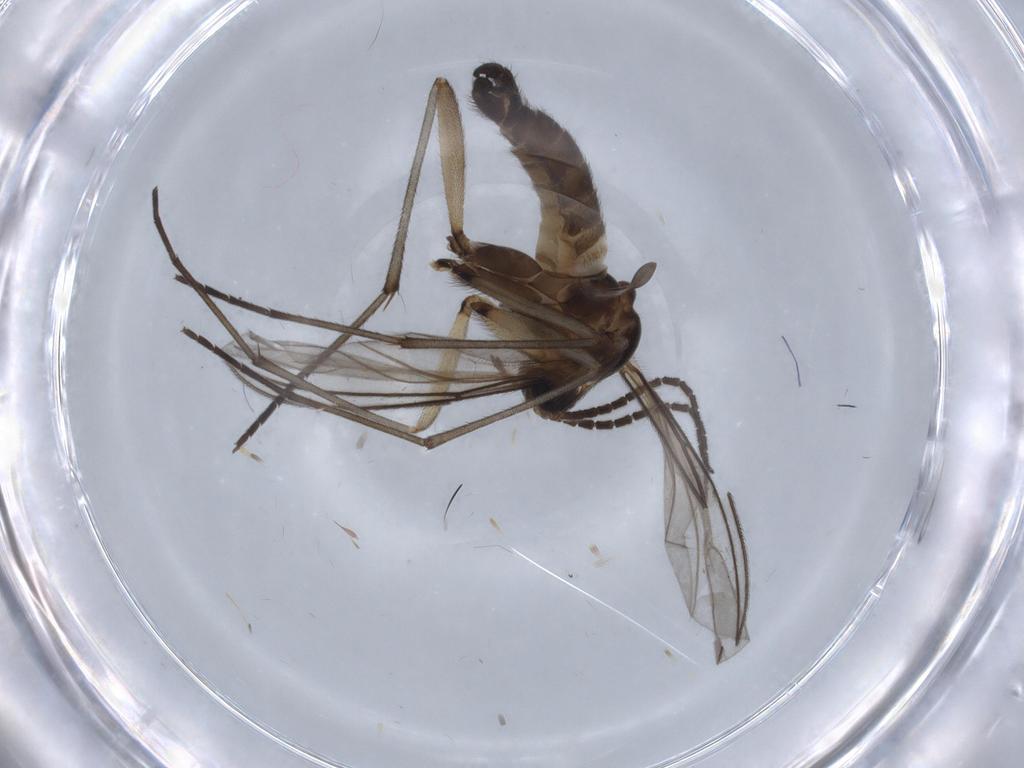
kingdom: Animalia
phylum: Arthropoda
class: Insecta
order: Diptera
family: Sciaridae
